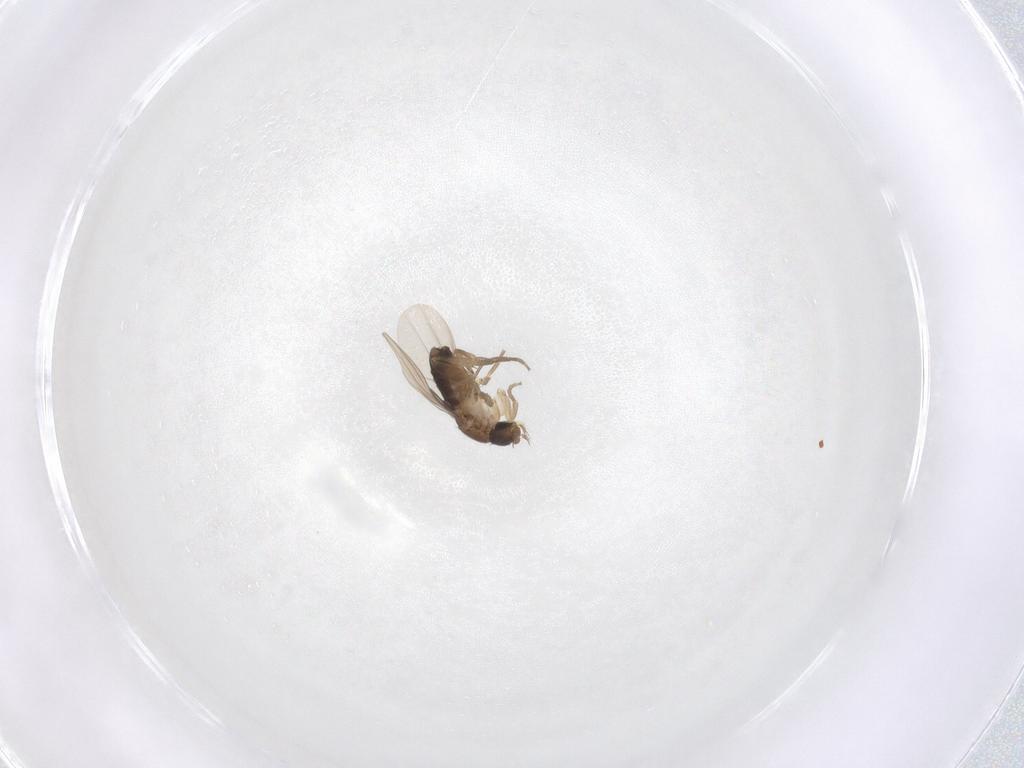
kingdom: Animalia
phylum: Arthropoda
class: Insecta
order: Diptera
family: Phoridae
